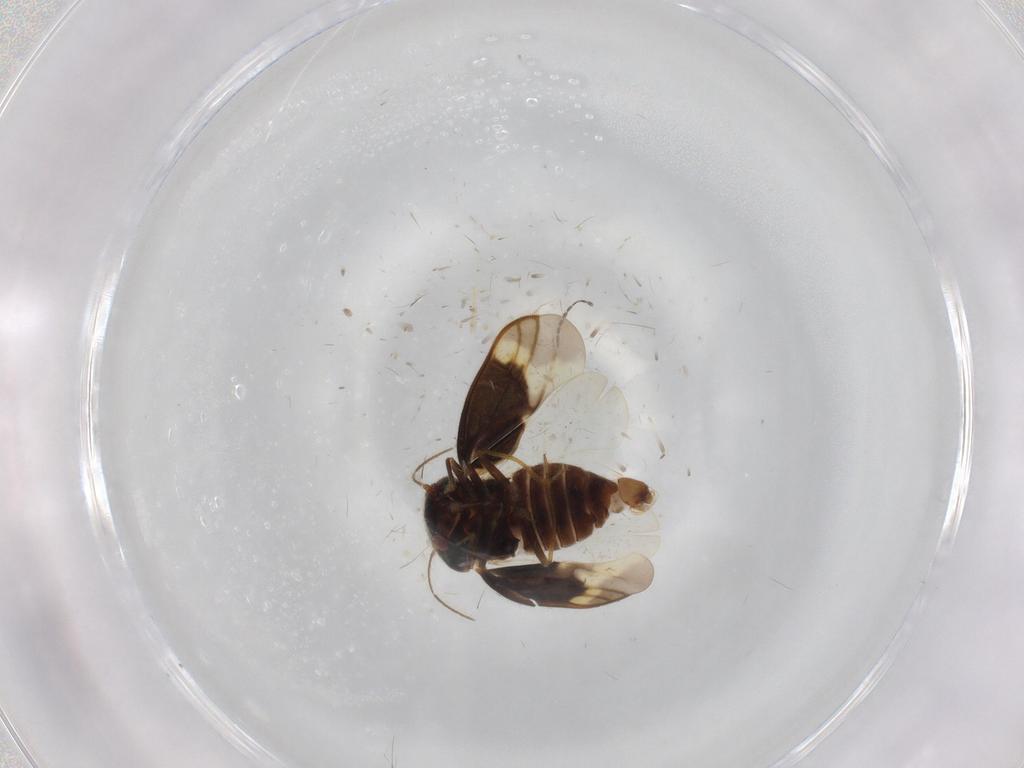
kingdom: Animalia
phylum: Arthropoda
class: Insecta
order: Hemiptera
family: Schizopteridae
